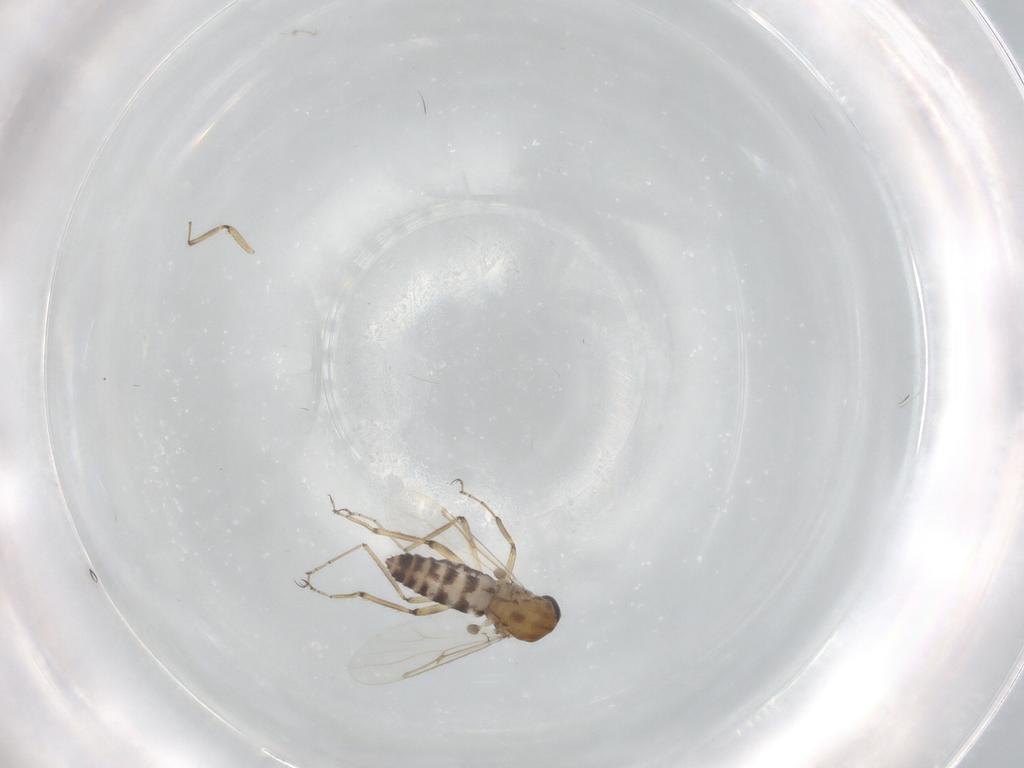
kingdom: Animalia
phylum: Arthropoda
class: Insecta
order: Diptera
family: Ceratopogonidae
